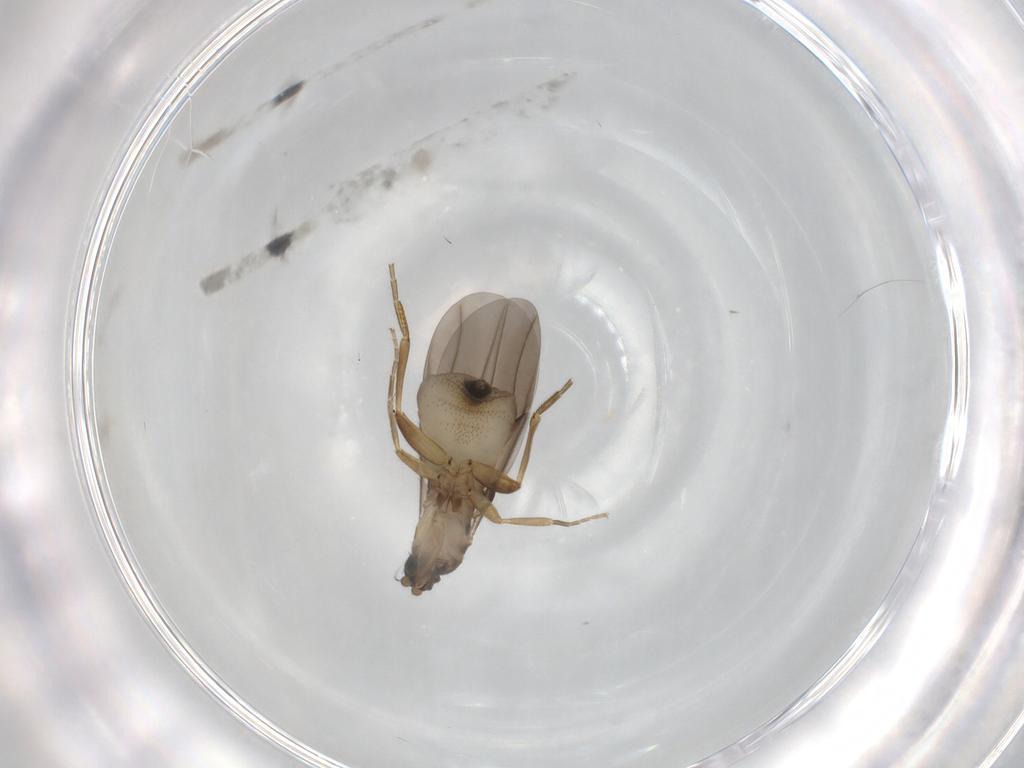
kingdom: Animalia
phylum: Arthropoda
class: Insecta
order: Diptera
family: Phoridae
